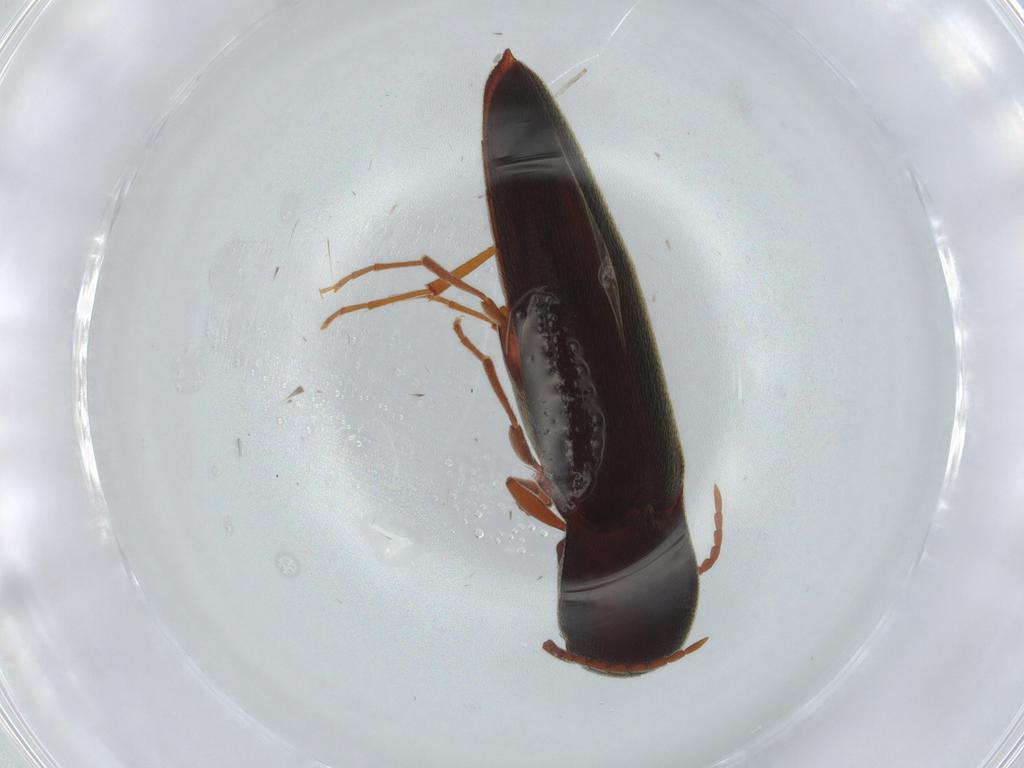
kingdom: Animalia
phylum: Arthropoda
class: Insecta
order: Coleoptera
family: Eucnemidae
